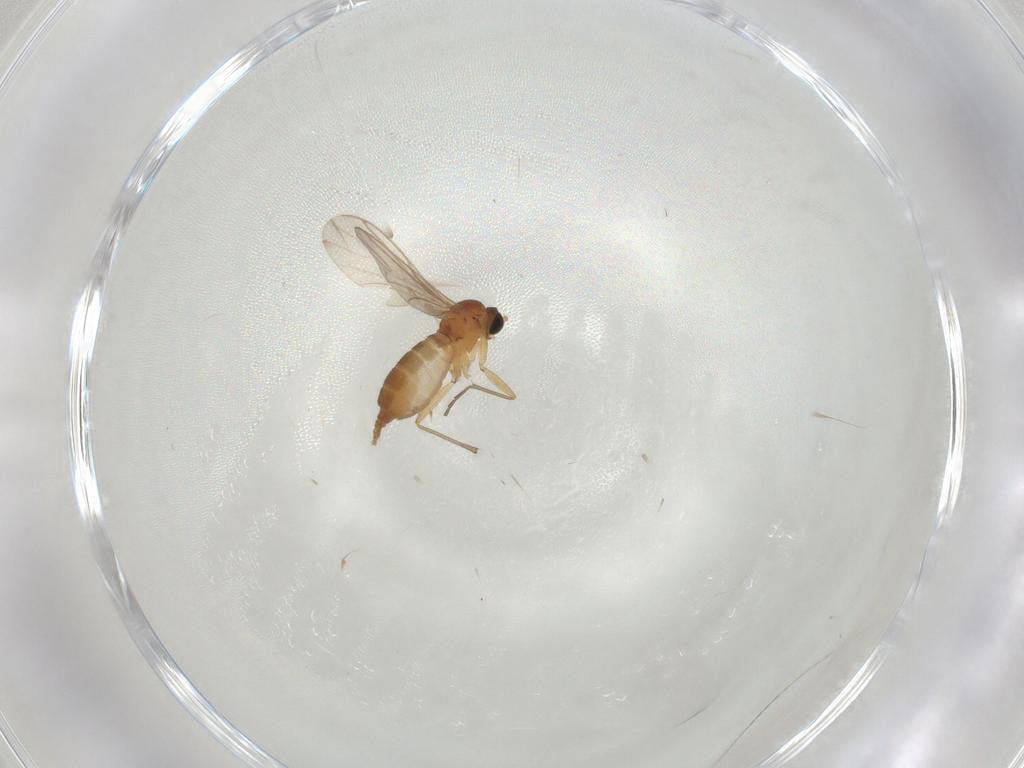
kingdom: Animalia
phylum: Arthropoda
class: Insecta
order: Diptera
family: Sciaridae
